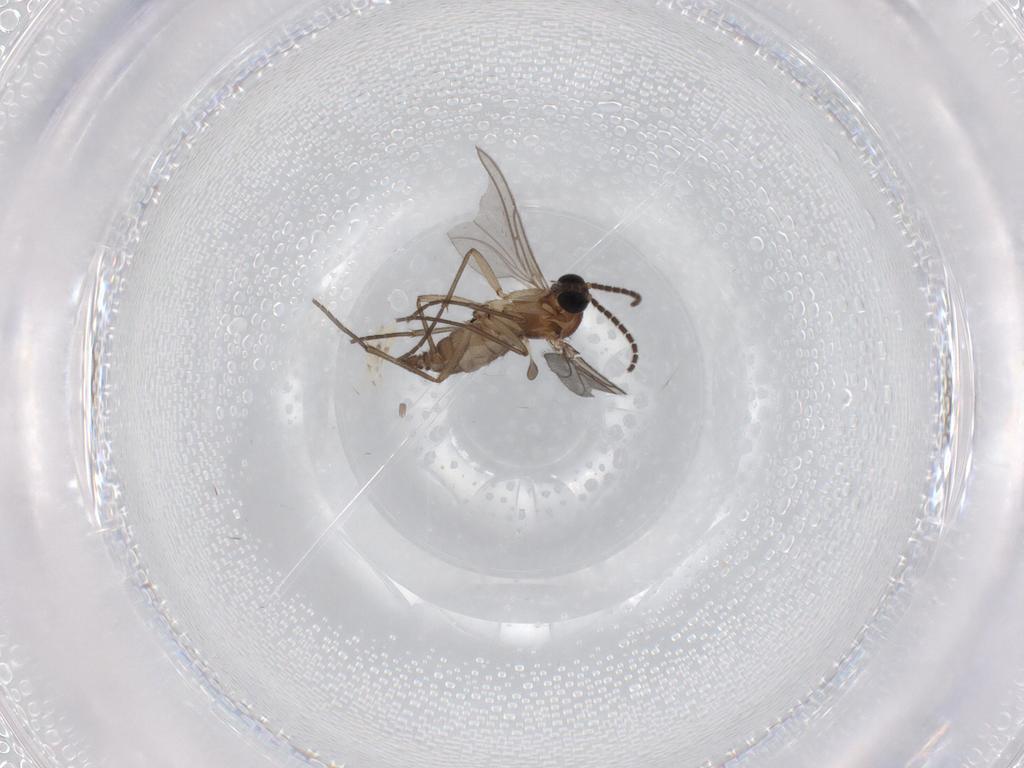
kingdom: Animalia
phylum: Arthropoda
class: Insecta
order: Diptera
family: Sciaridae
